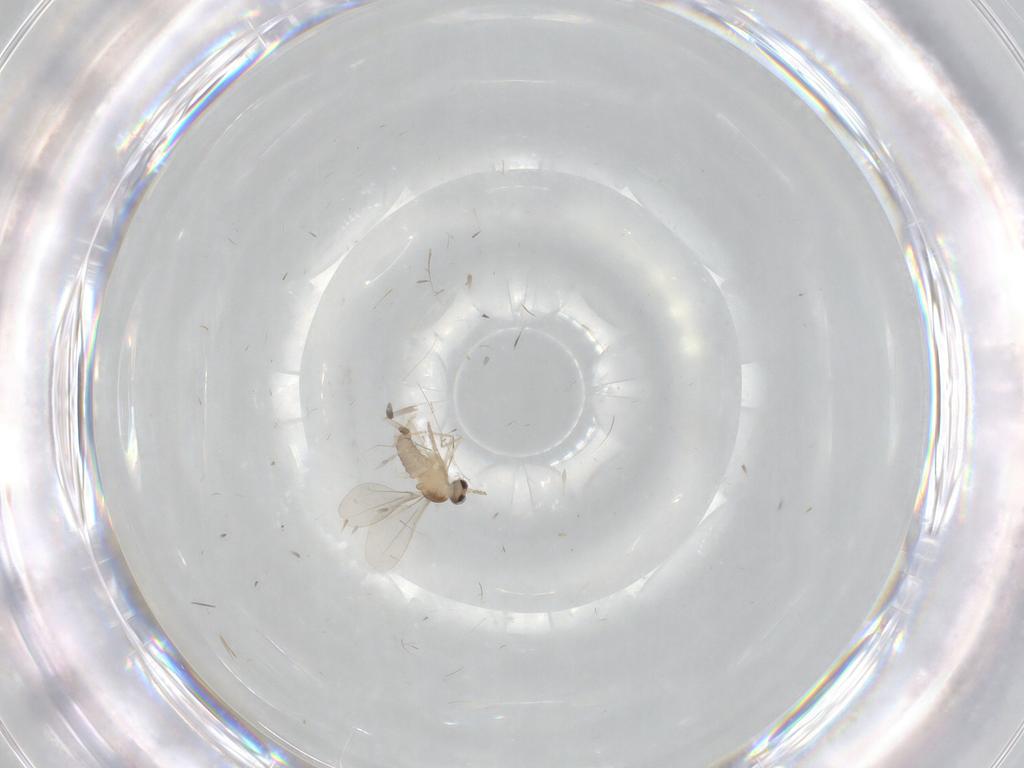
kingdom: Animalia
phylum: Arthropoda
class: Insecta
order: Diptera
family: Cecidomyiidae
